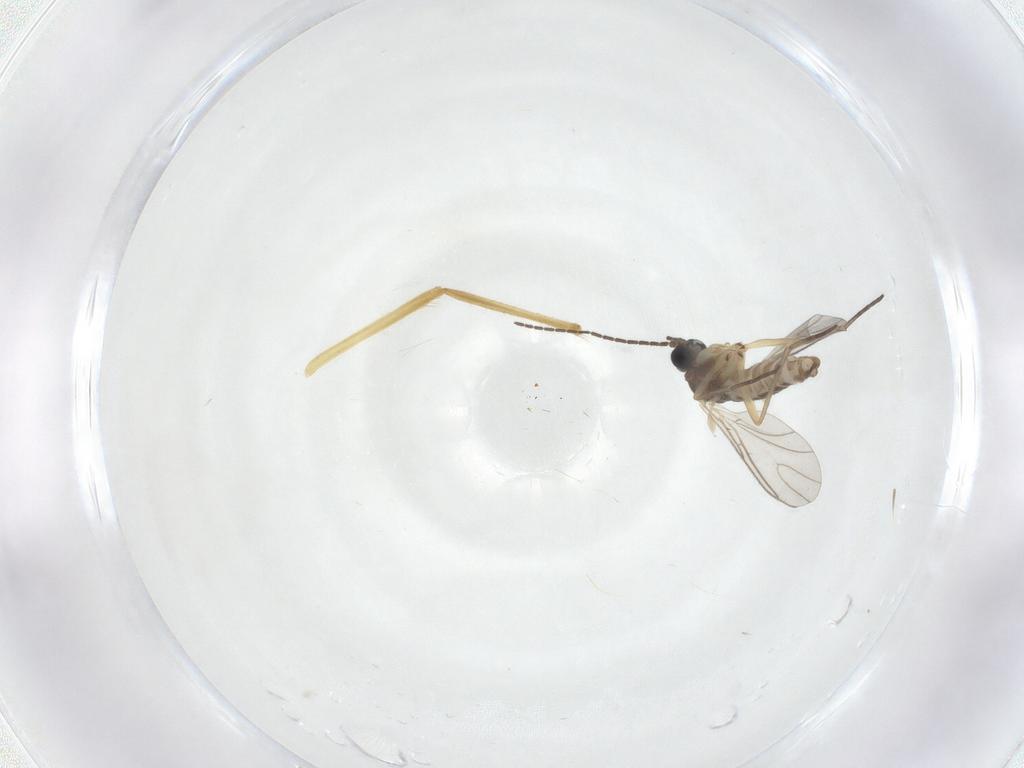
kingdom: Animalia
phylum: Arthropoda
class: Insecta
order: Diptera
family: Sciaridae
